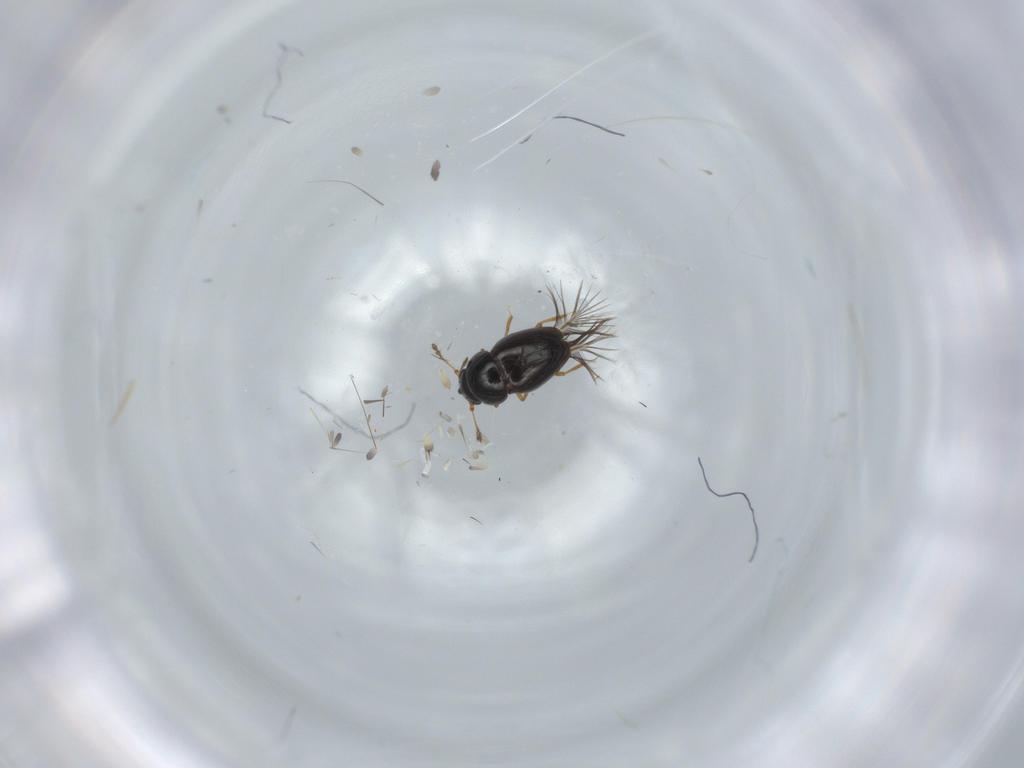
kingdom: Animalia
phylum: Arthropoda
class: Insecta
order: Coleoptera
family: Ptiliidae
